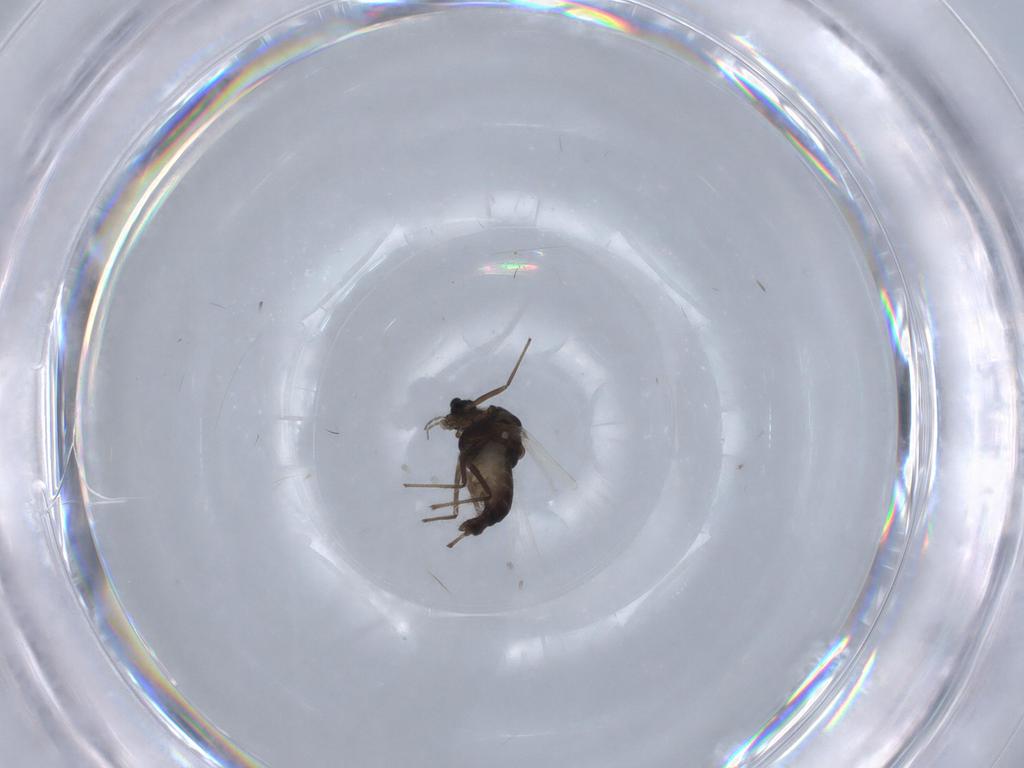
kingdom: Animalia
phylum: Arthropoda
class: Insecta
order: Diptera
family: Chironomidae
